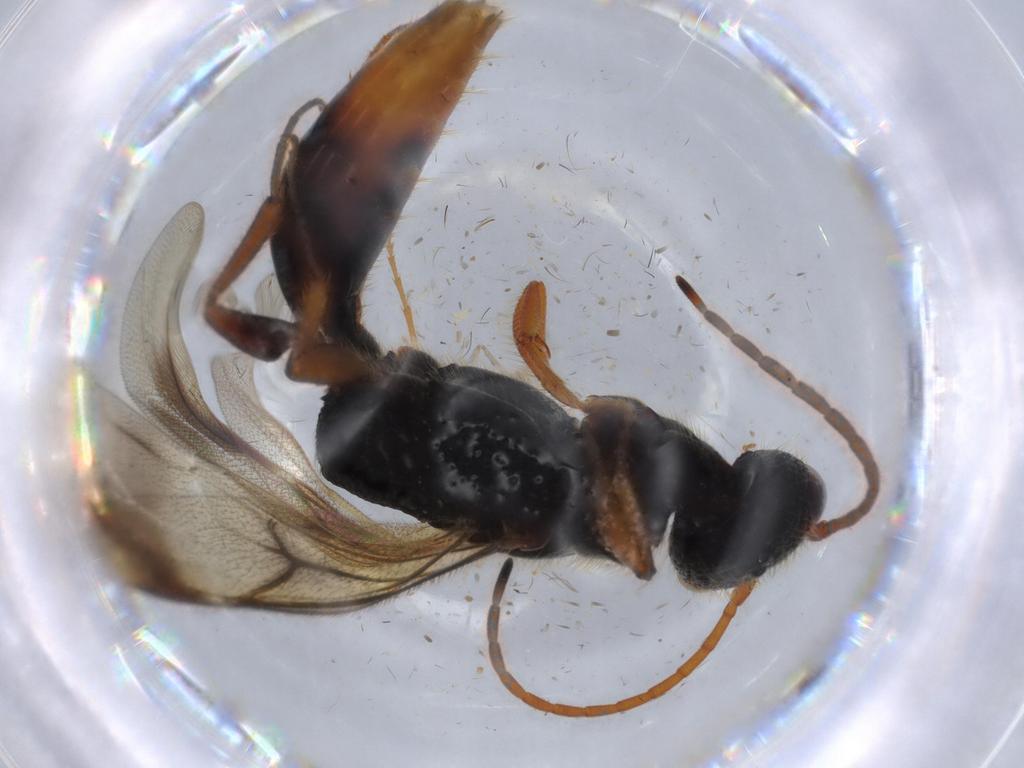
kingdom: Animalia
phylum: Arthropoda
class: Insecta
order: Hymenoptera
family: Bethylidae
